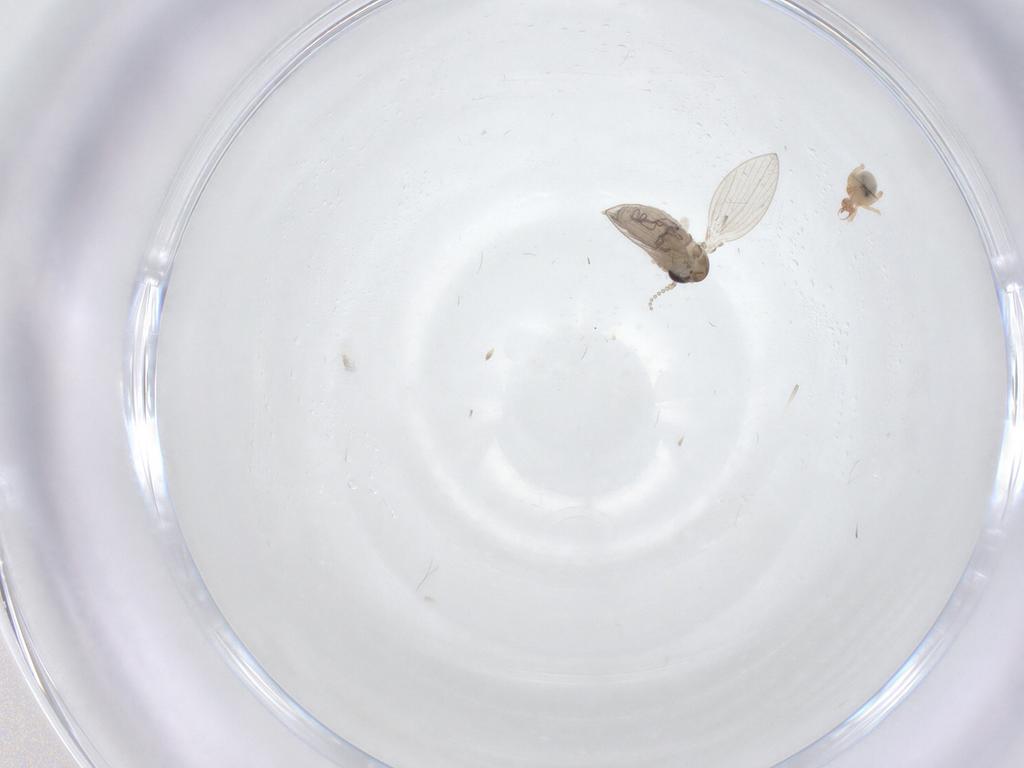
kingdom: Animalia
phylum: Arthropoda
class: Insecta
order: Diptera
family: Psychodidae
